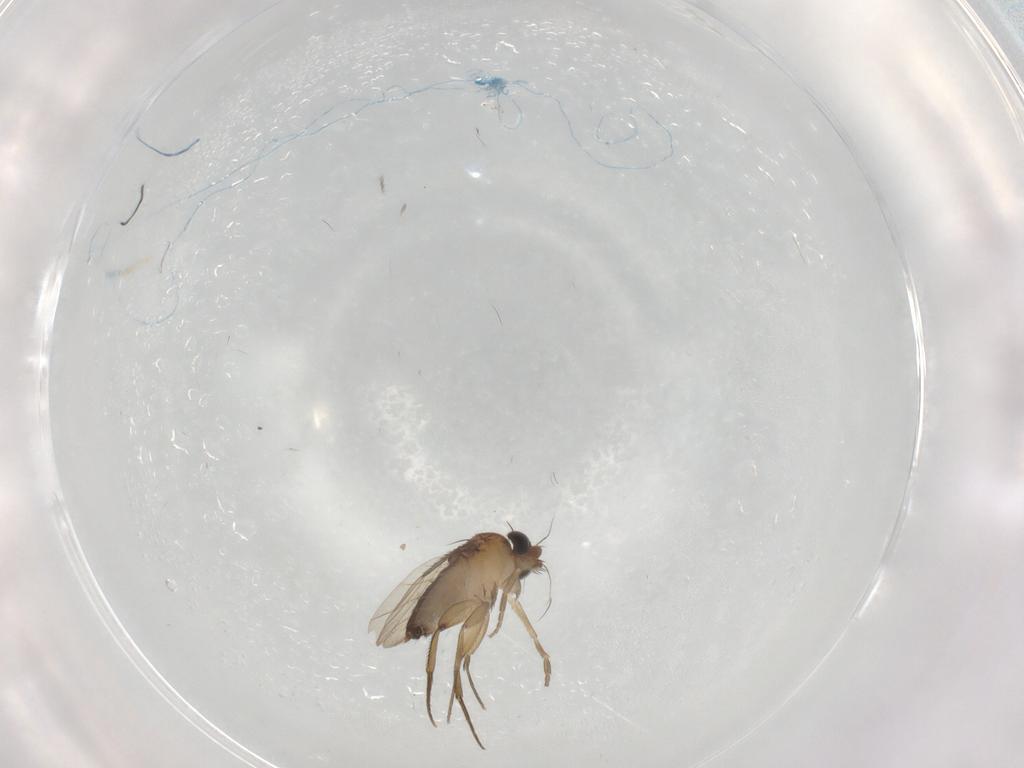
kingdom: Animalia
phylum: Arthropoda
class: Insecta
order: Diptera
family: Phoridae
